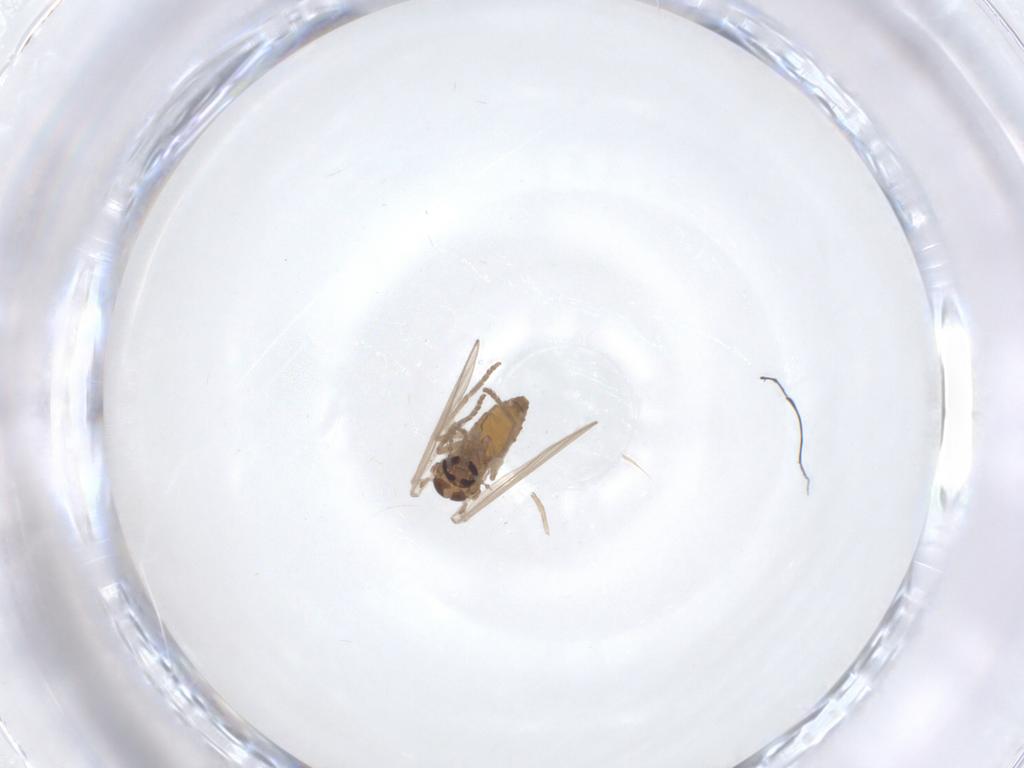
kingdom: Animalia
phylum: Arthropoda
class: Insecta
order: Diptera
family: Psychodidae
